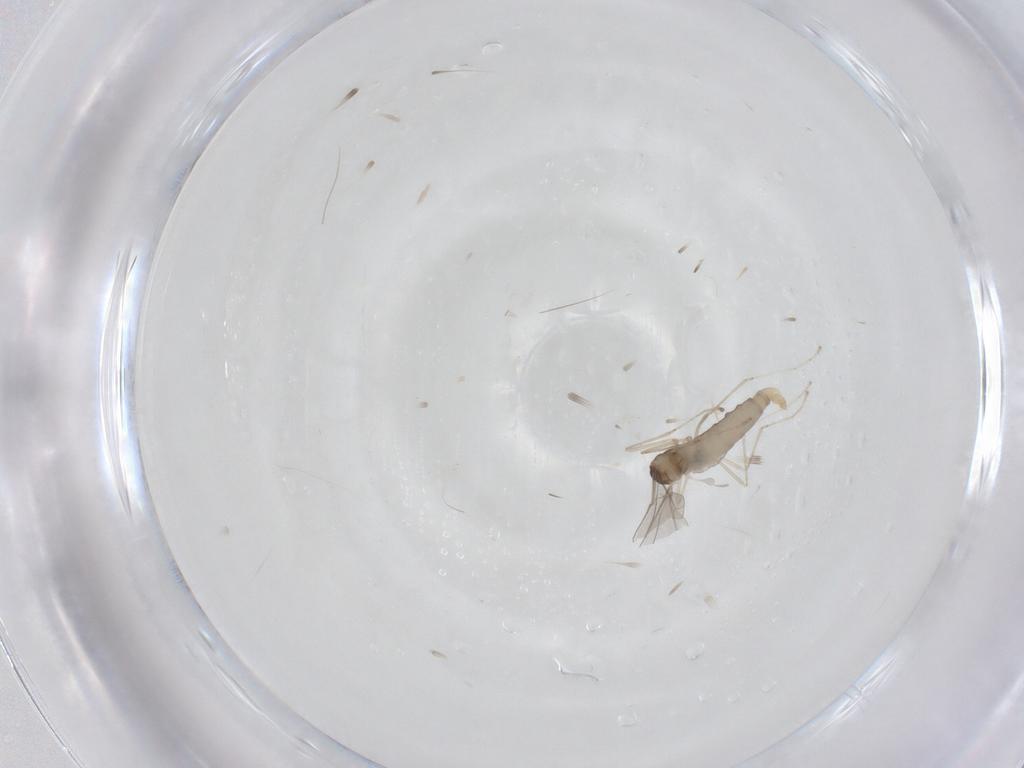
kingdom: Animalia
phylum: Arthropoda
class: Insecta
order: Diptera
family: Cecidomyiidae
